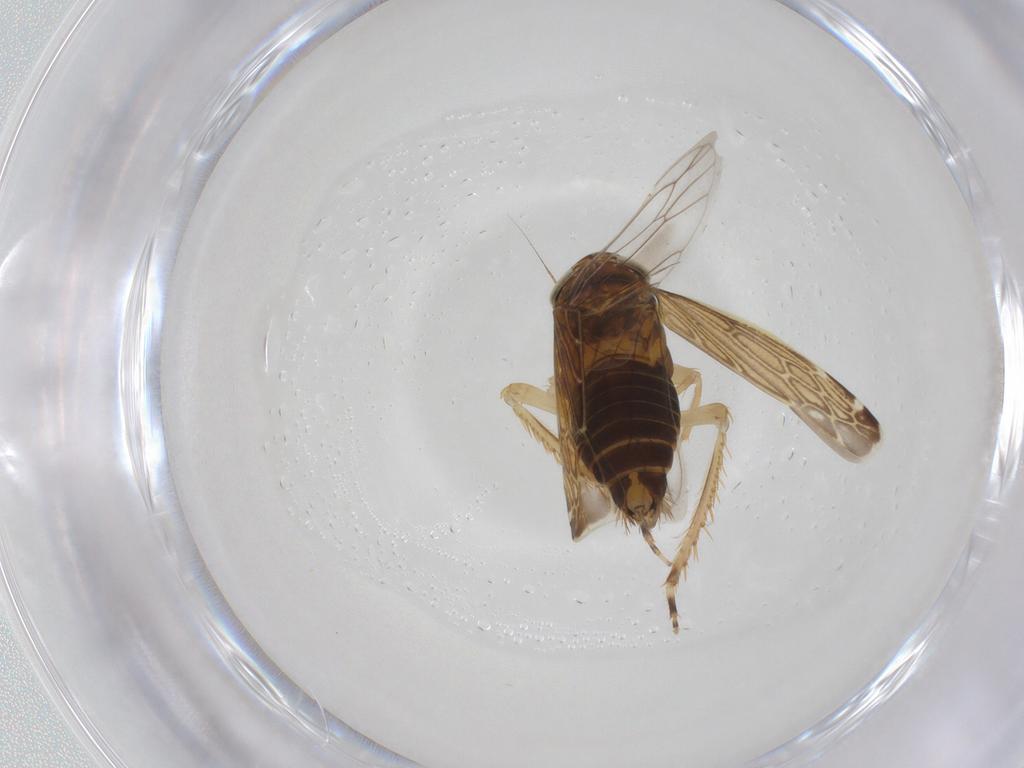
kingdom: Animalia
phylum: Arthropoda
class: Insecta
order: Hemiptera
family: Cicadellidae
